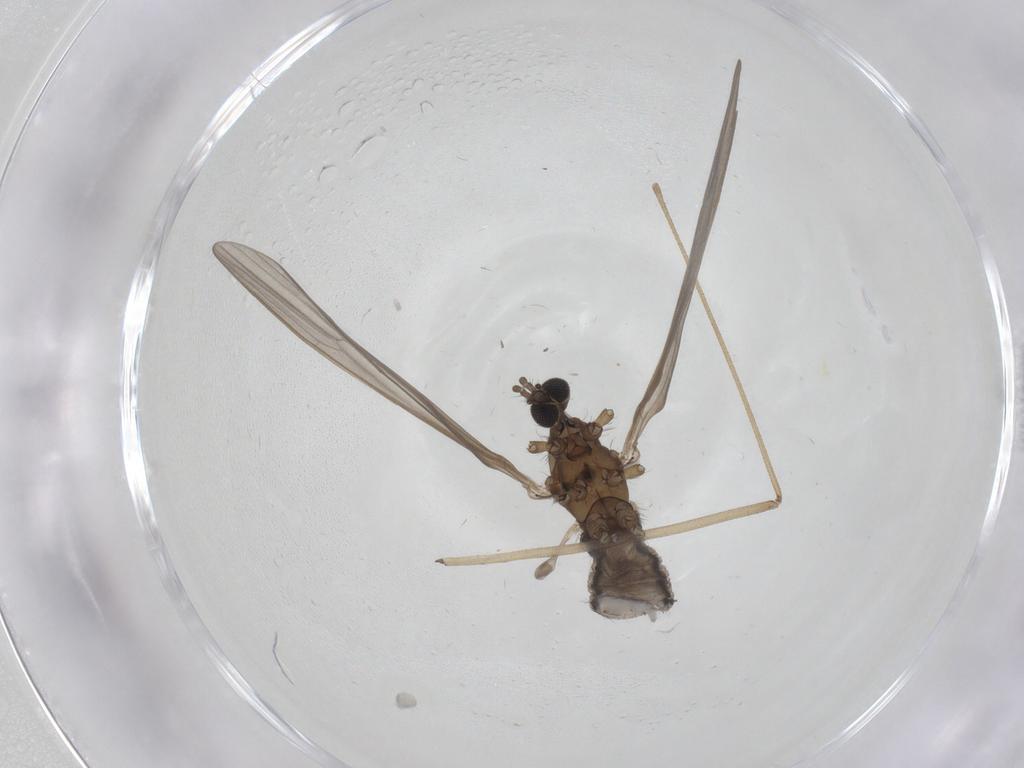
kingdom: Animalia
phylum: Arthropoda
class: Insecta
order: Diptera
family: Limoniidae
